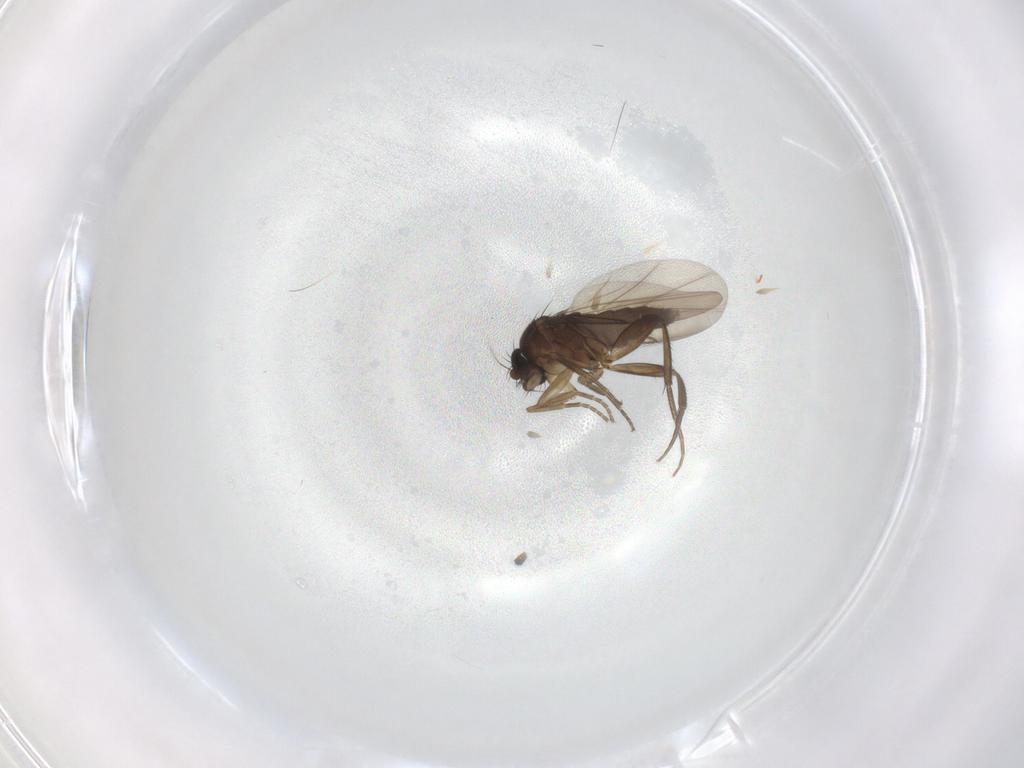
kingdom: Animalia
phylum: Arthropoda
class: Insecta
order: Diptera
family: Phoridae
